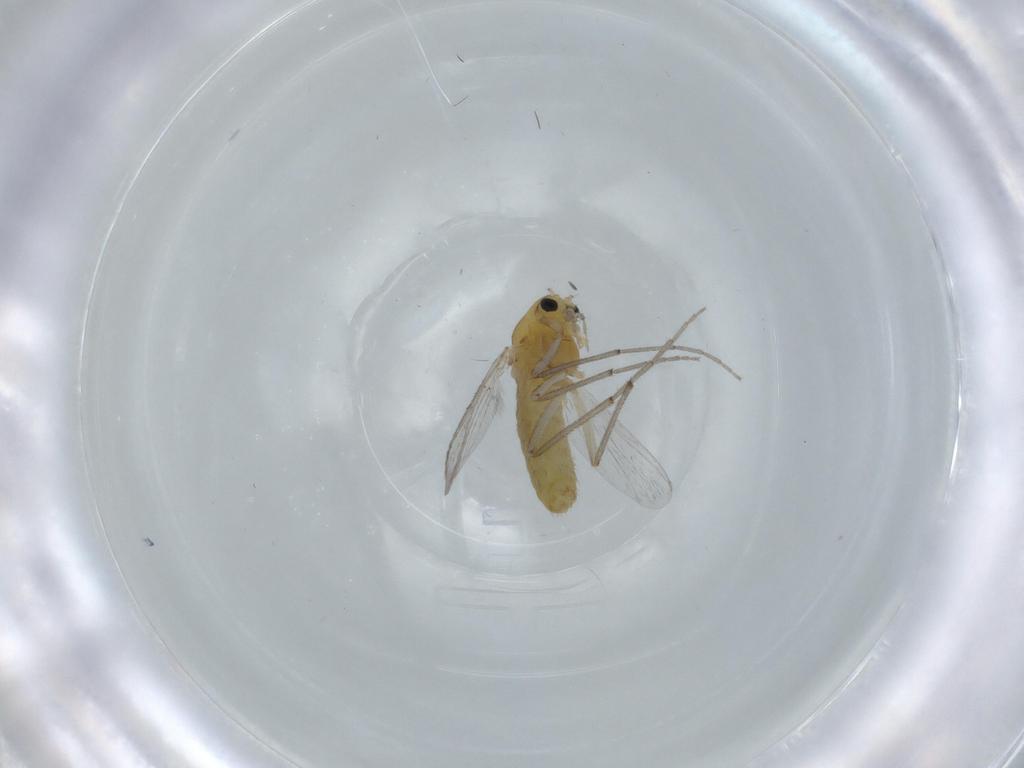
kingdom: Animalia
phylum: Arthropoda
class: Insecta
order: Diptera
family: Chironomidae
